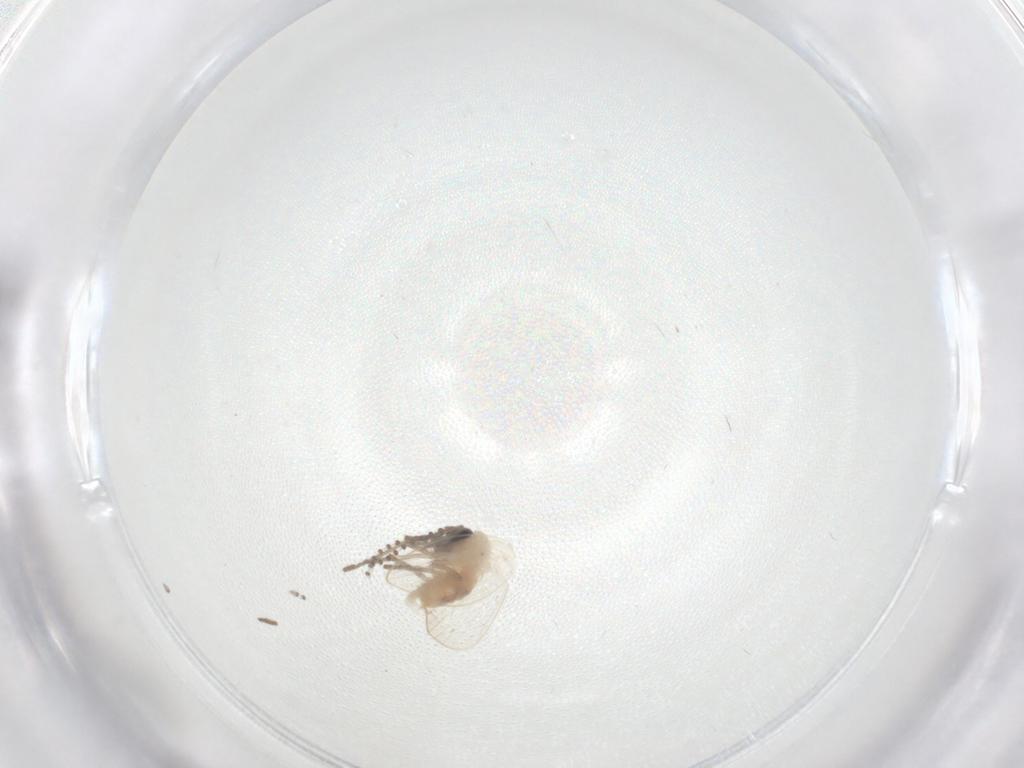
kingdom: Animalia
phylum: Arthropoda
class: Insecta
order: Diptera
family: Psychodidae
